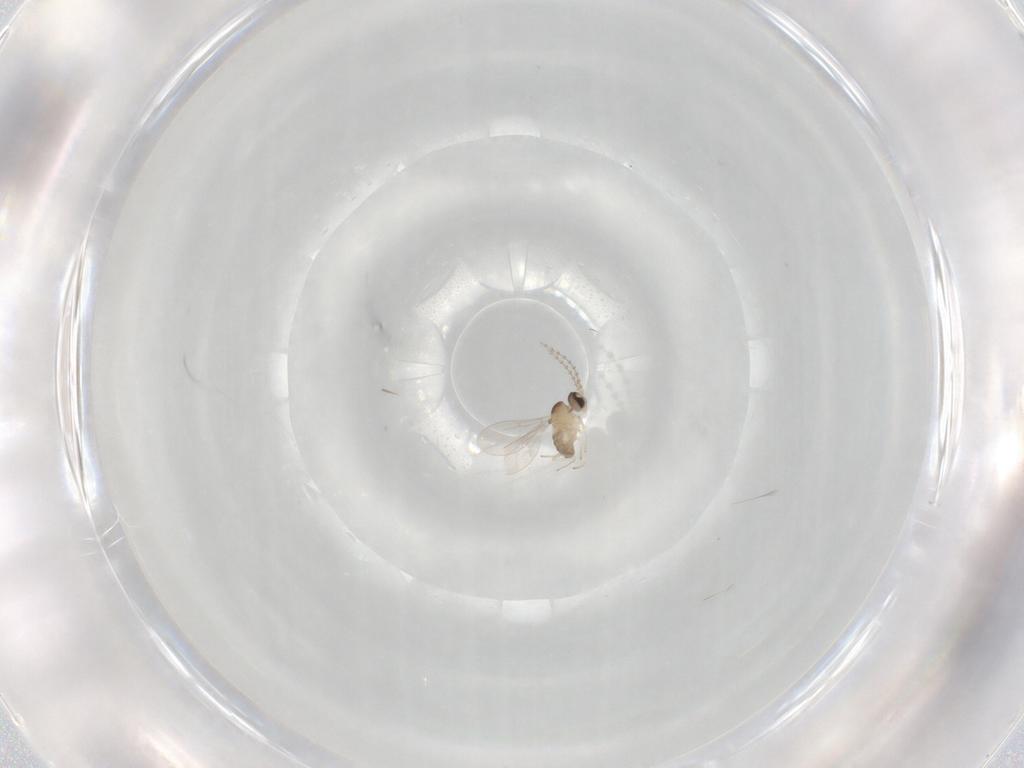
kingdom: Animalia
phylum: Arthropoda
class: Insecta
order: Diptera
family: Cecidomyiidae
